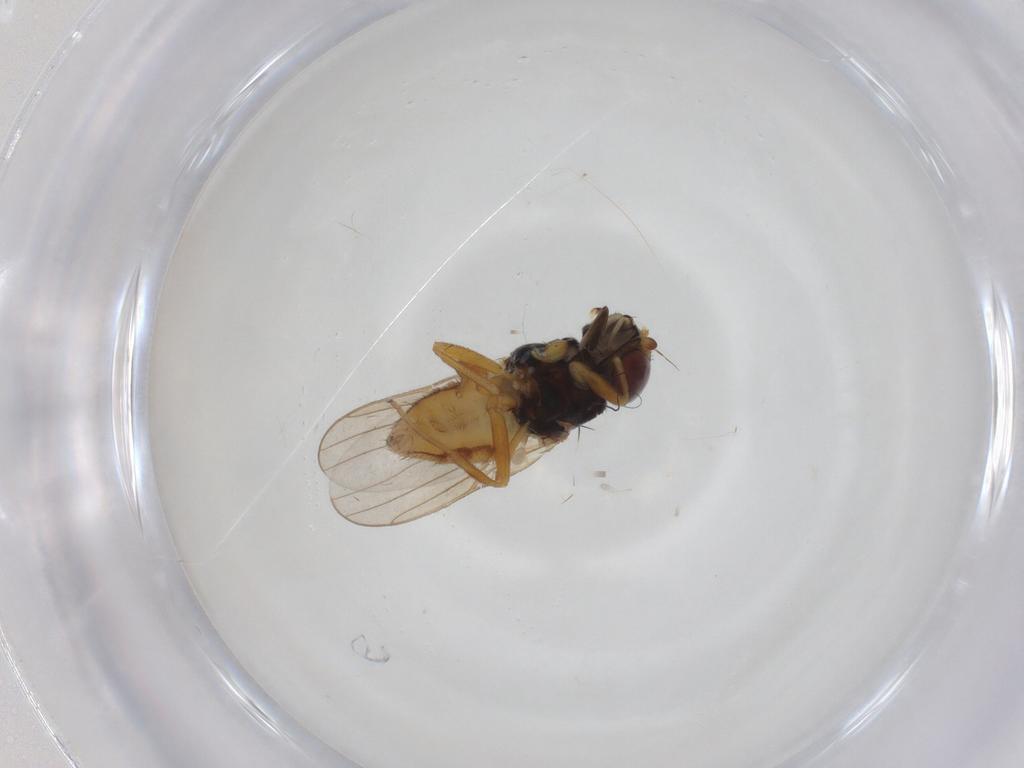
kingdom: Animalia
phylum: Arthropoda
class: Insecta
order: Diptera
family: Chloropidae
